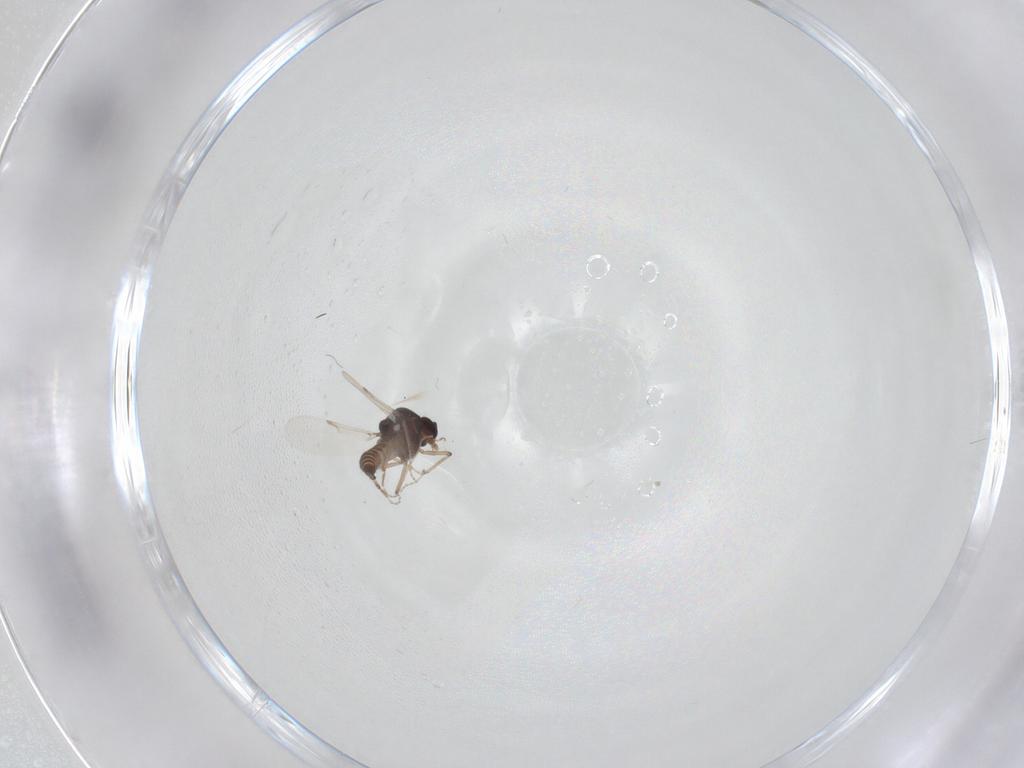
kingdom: Animalia
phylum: Arthropoda
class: Insecta
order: Diptera
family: Ceratopogonidae
